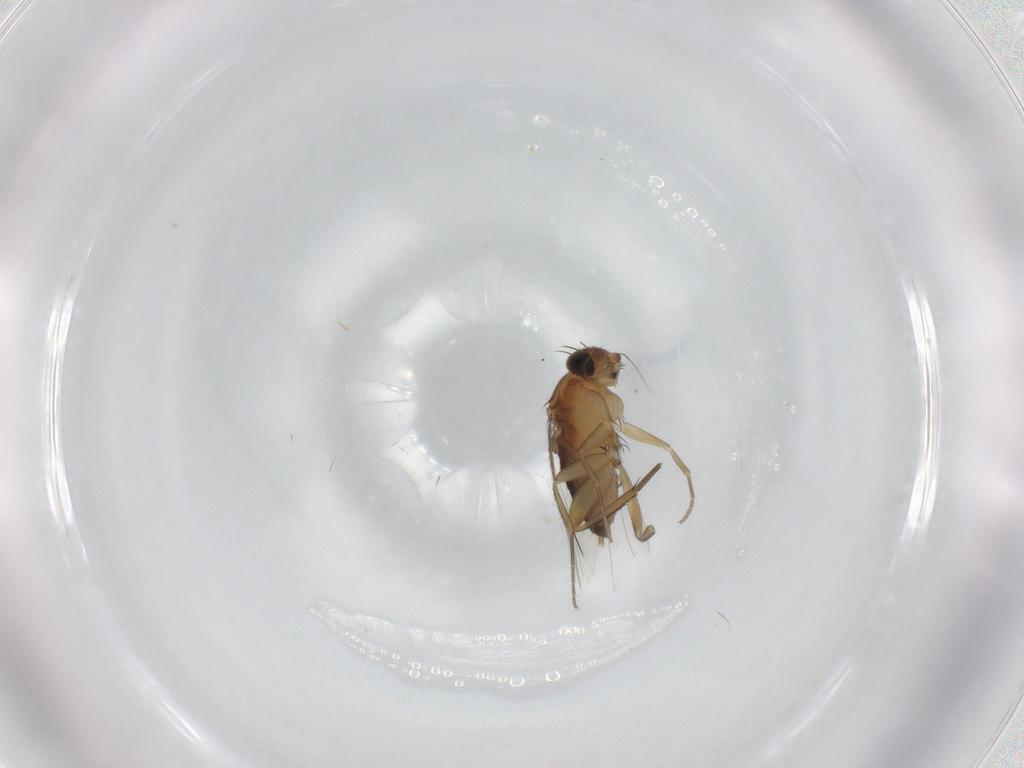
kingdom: Animalia
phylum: Arthropoda
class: Insecta
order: Diptera
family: Phoridae
